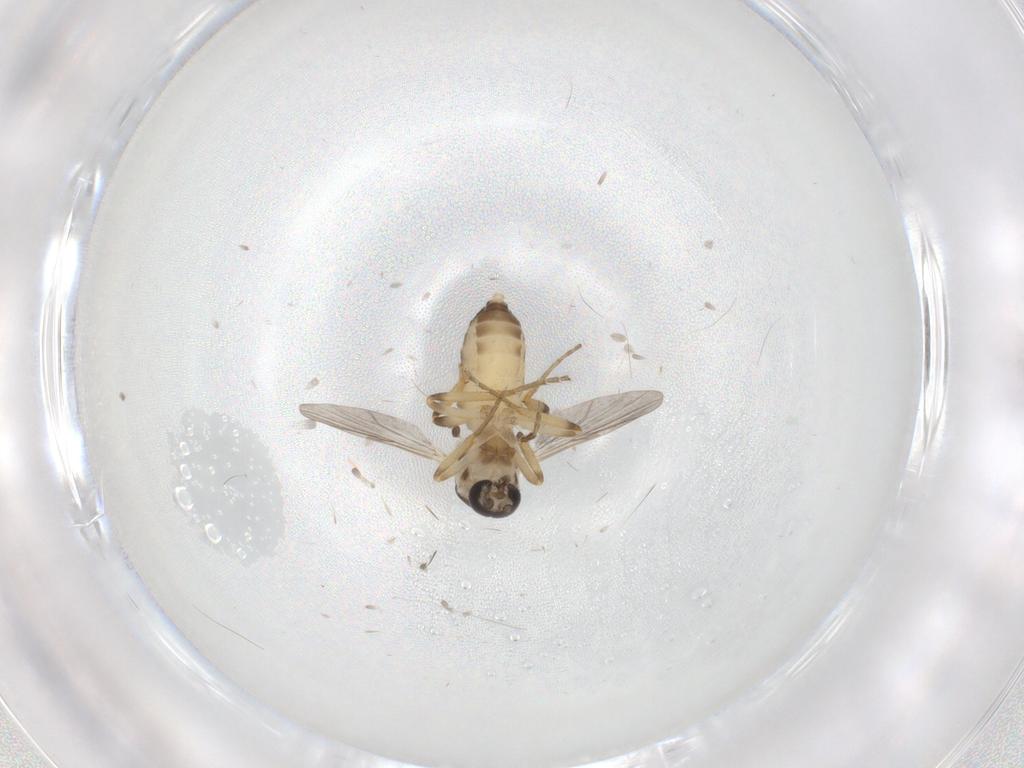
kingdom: Animalia
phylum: Arthropoda
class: Insecta
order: Diptera
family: Ceratopogonidae
